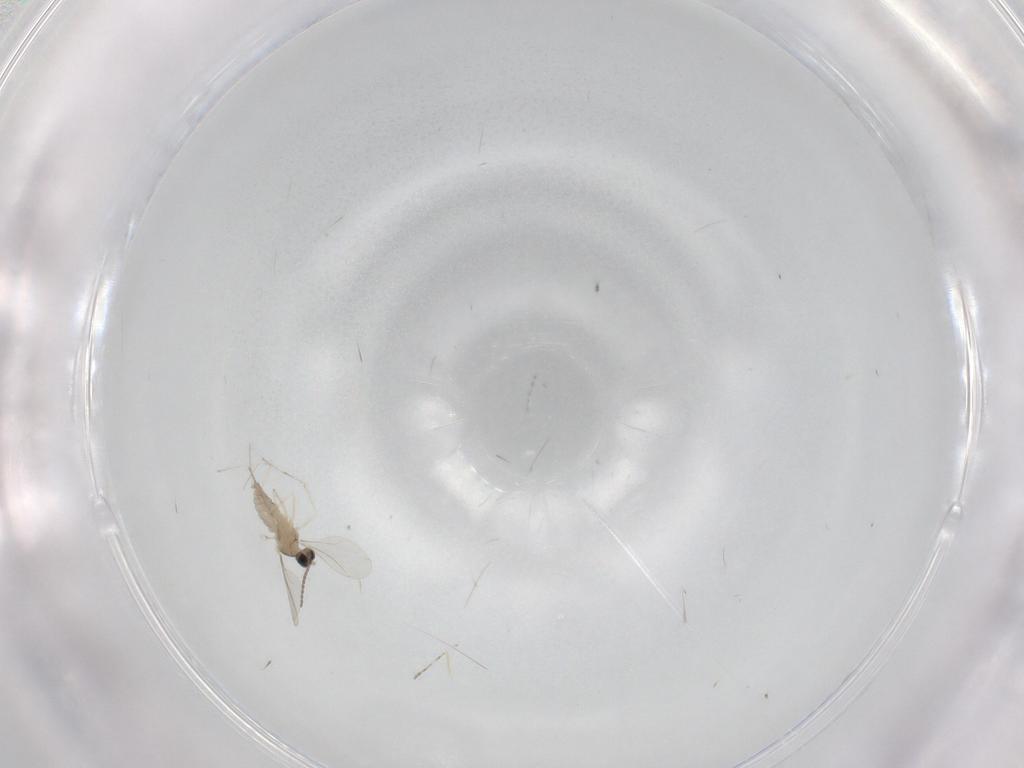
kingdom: Animalia
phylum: Arthropoda
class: Insecta
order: Diptera
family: Cecidomyiidae
